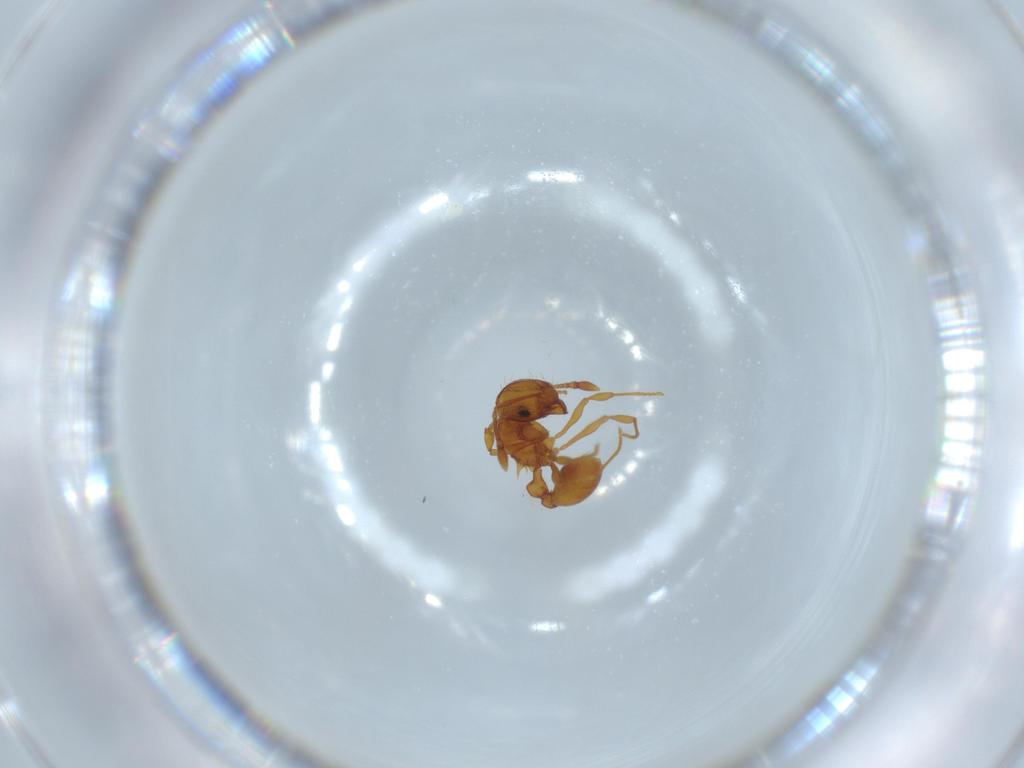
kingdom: Animalia
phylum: Arthropoda
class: Insecta
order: Hymenoptera
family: Formicidae
